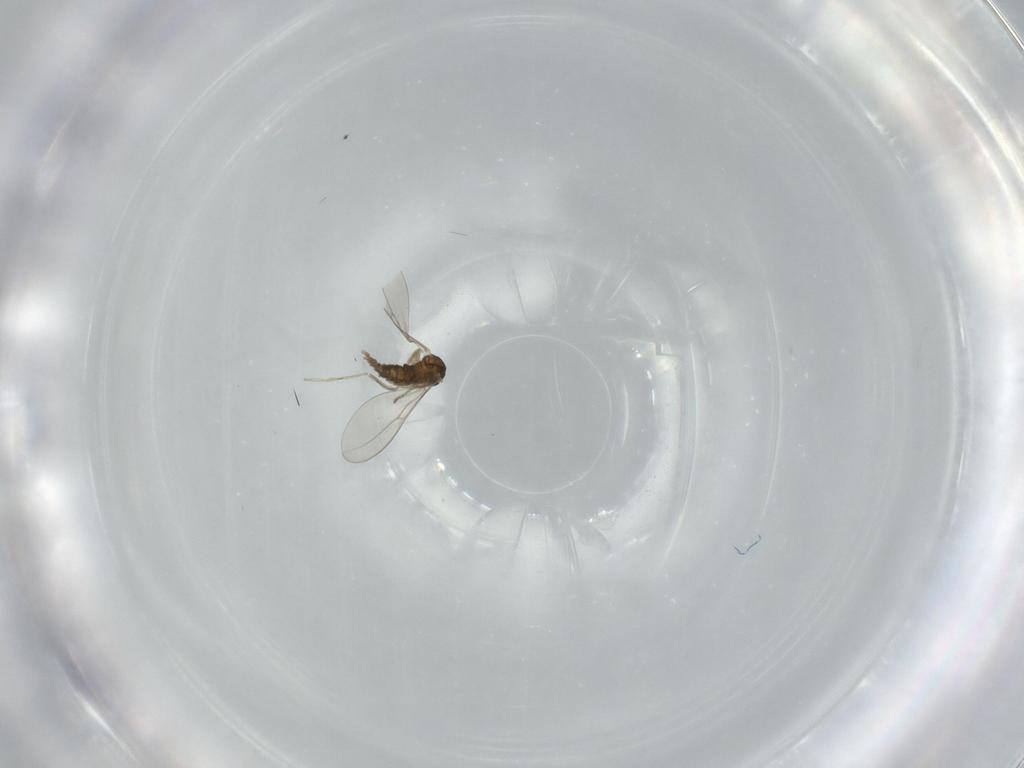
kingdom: Animalia
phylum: Arthropoda
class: Insecta
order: Diptera
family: Cecidomyiidae
